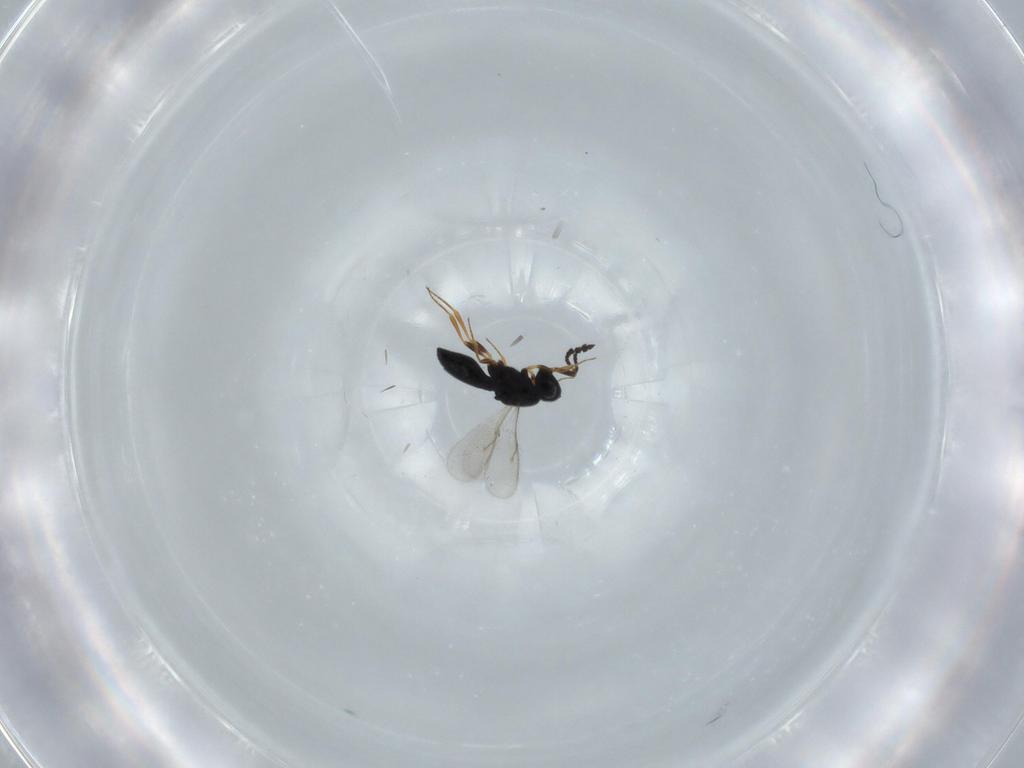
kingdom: Animalia
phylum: Arthropoda
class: Insecta
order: Hymenoptera
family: Scelionidae
